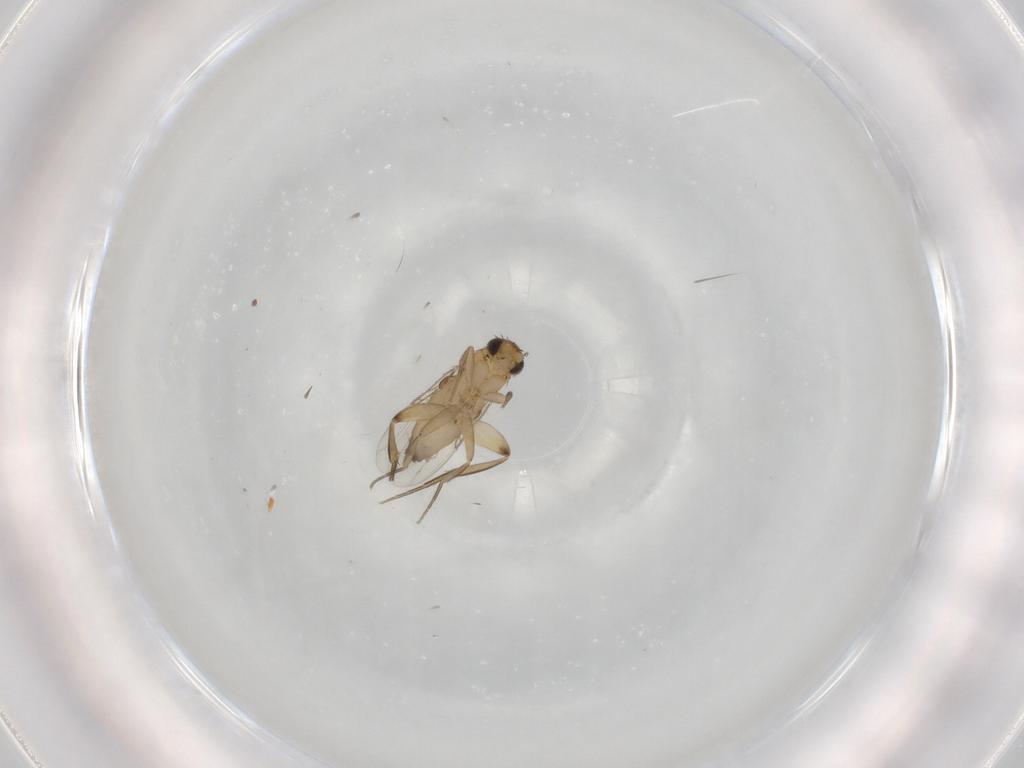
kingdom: Animalia
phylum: Arthropoda
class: Insecta
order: Diptera
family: Phoridae
